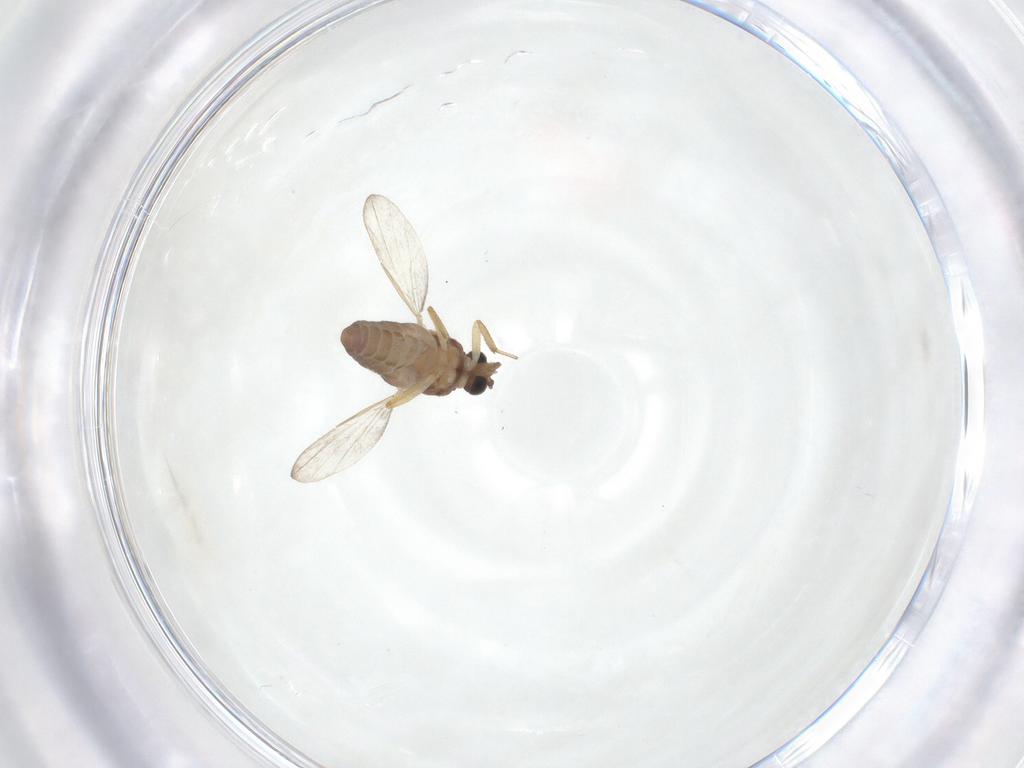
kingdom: Animalia
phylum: Arthropoda
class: Insecta
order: Diptera
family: Ceratopogonidae
